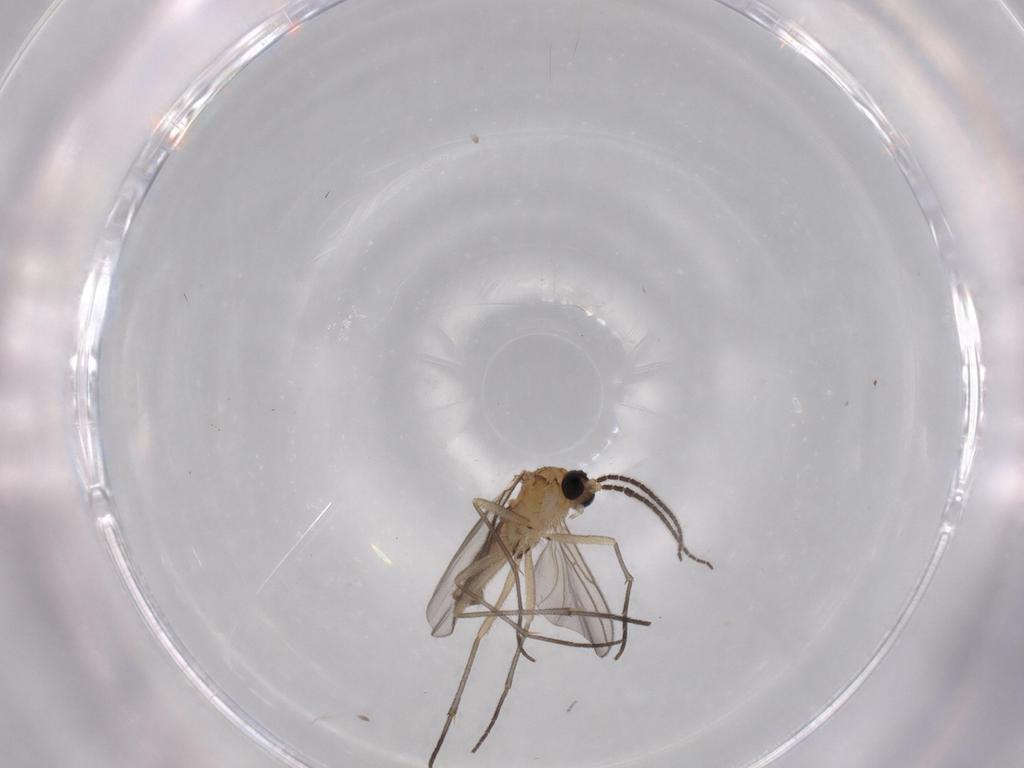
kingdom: Animalia
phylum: Arthropoda
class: Insecta
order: Diptera
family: Sciaridae
